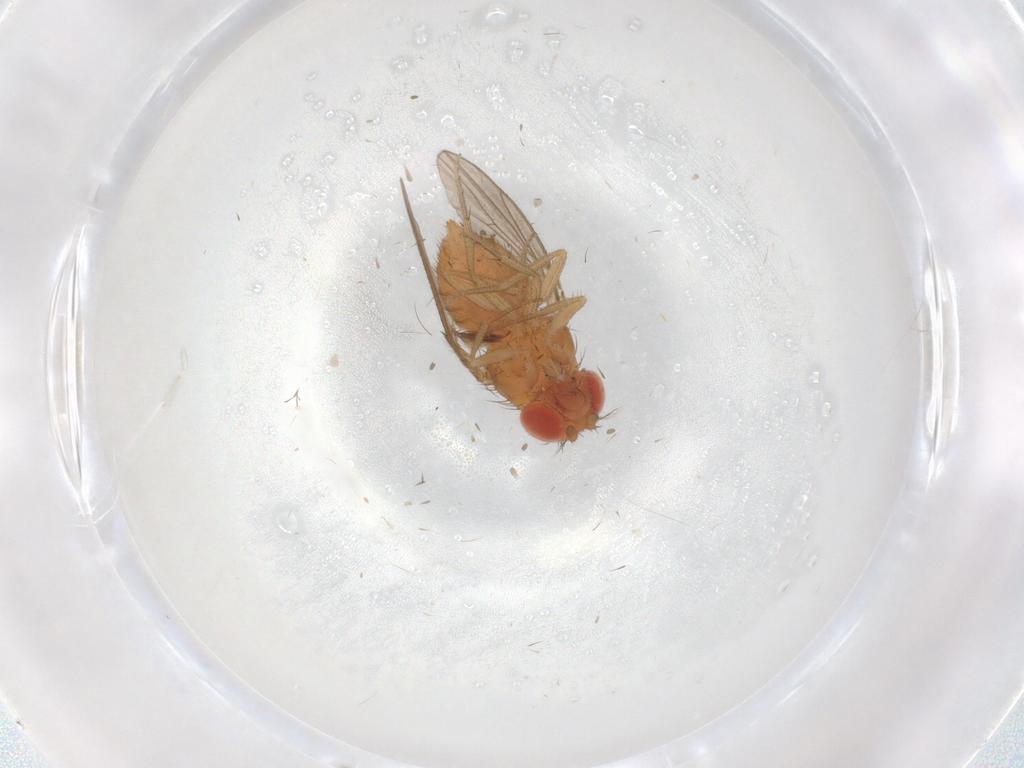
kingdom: Animalia
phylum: Arthropoda
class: Insecta
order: Diptera
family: Drosophilidae
